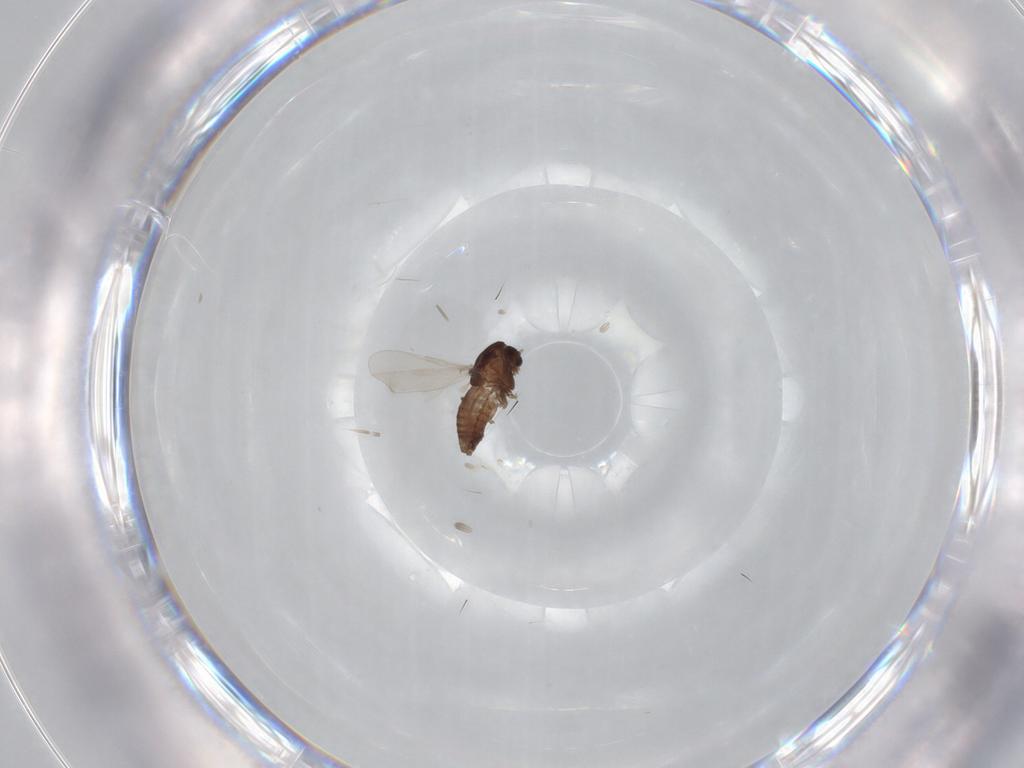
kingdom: Animalia
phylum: Arthropoda
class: Insecta
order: Diptera
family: Chironomidae
